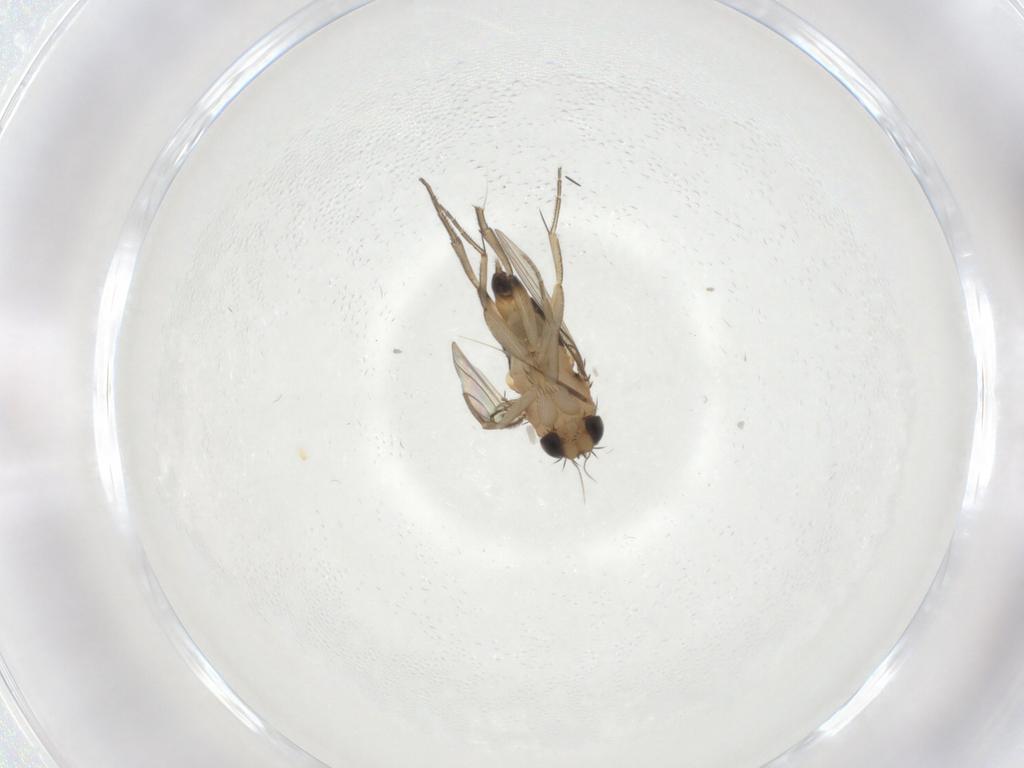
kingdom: Animalia
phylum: Arthropoda
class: Insecta
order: Diptera
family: Phoridae
